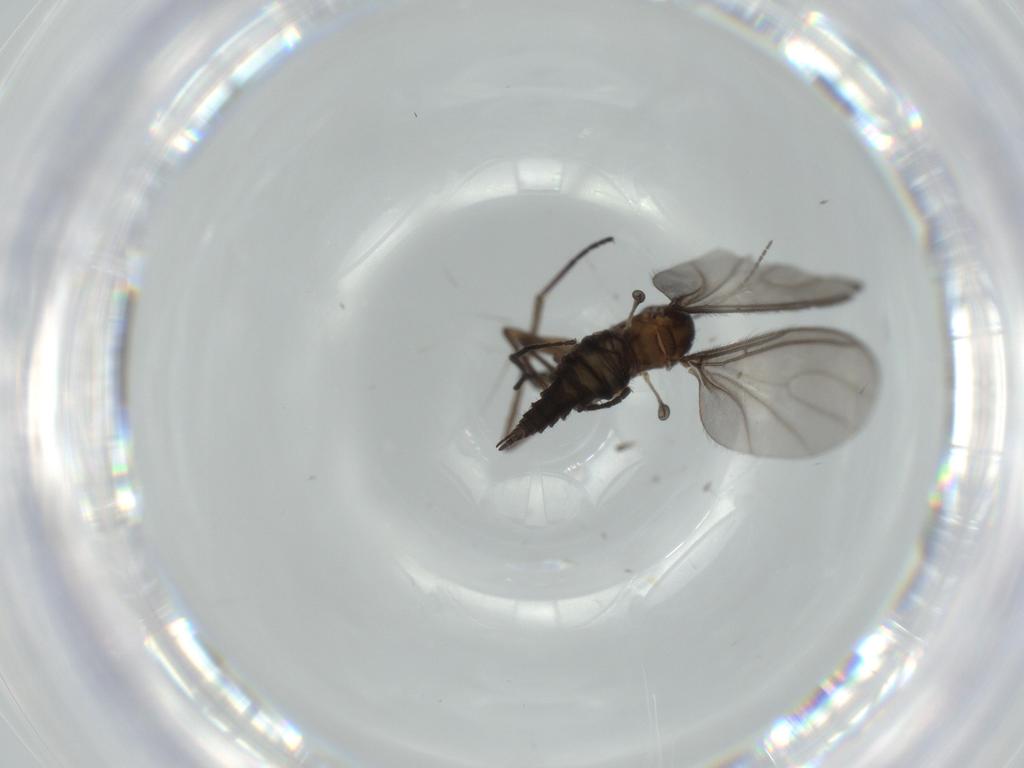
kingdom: Animalia
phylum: Arthropoda
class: Insecta
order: Diptera
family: Sciaridae
